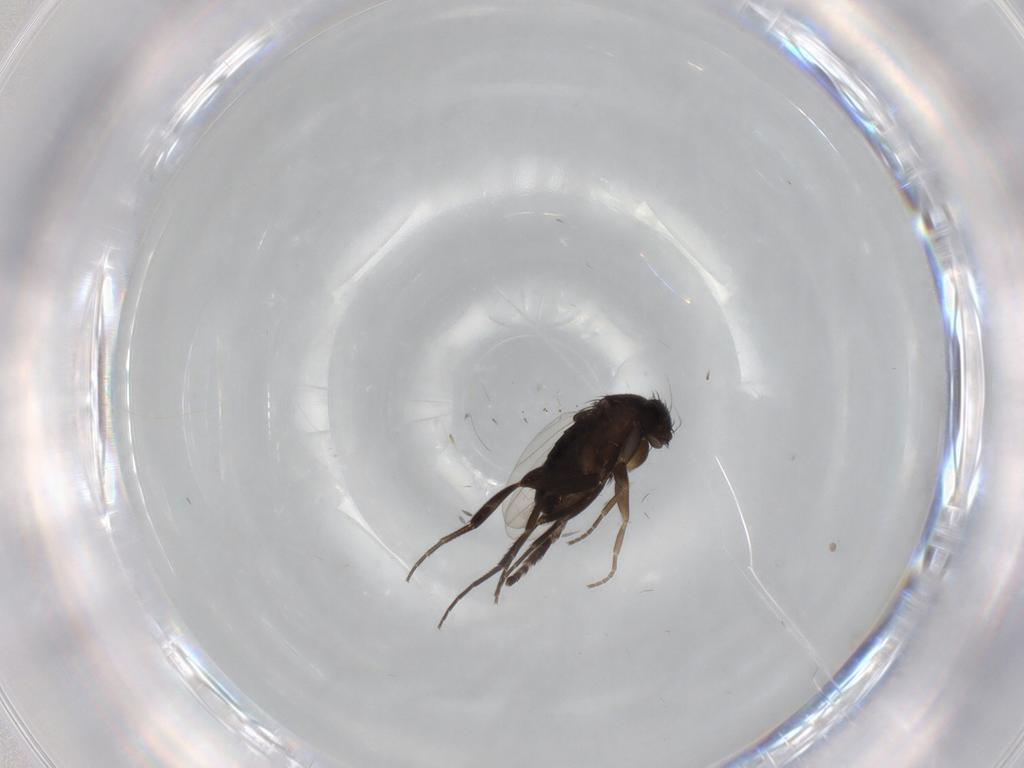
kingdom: Animalia
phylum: Arthropoda
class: Insecta
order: Diptera
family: Psychodidae
